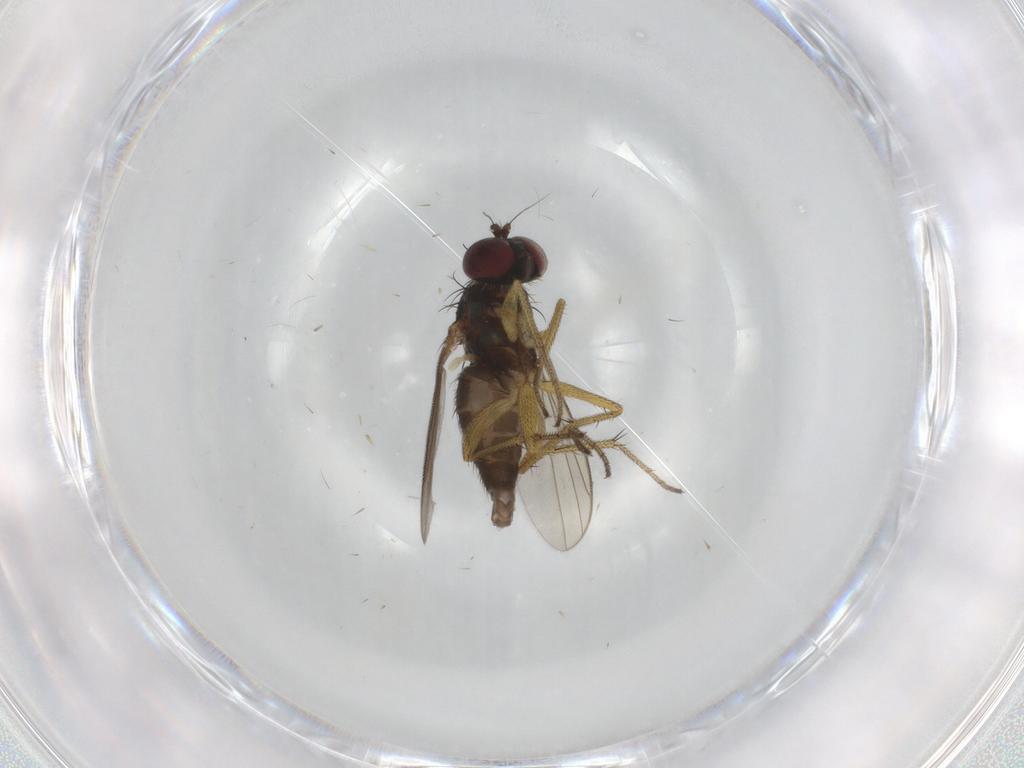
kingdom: Animalia
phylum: Arthropoda
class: Insecta
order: Diptera
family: Dolichopodidae
